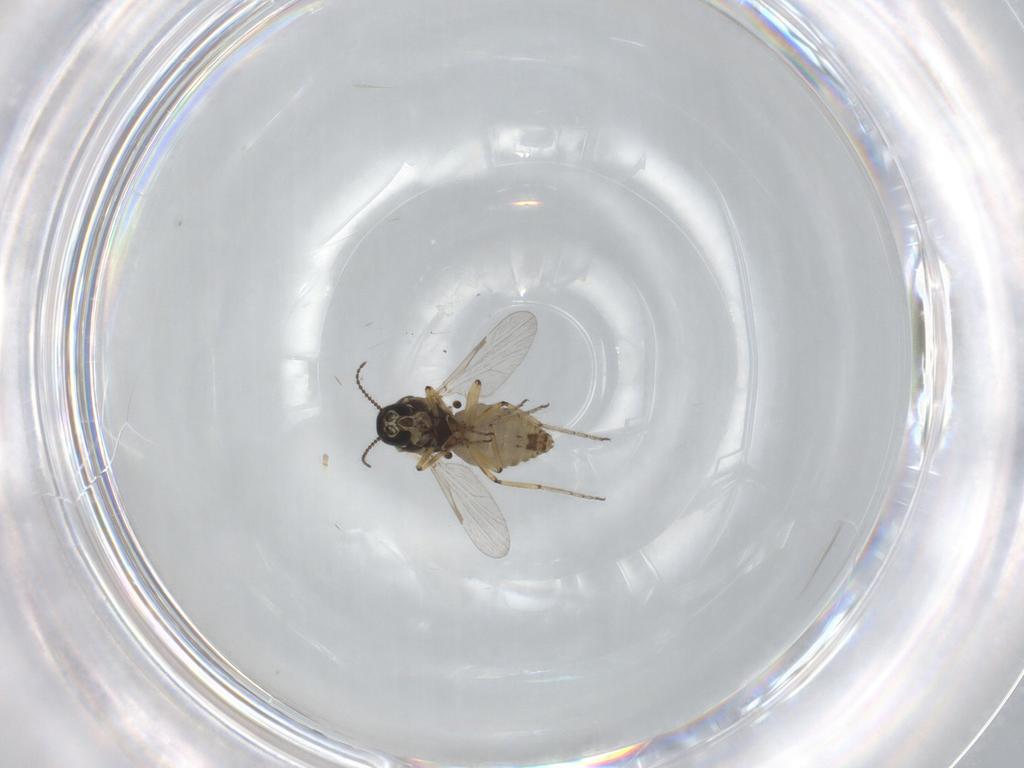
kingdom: Animalia
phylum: Arthropoda
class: Insecta
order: Diptera
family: Ceratopogonidae
